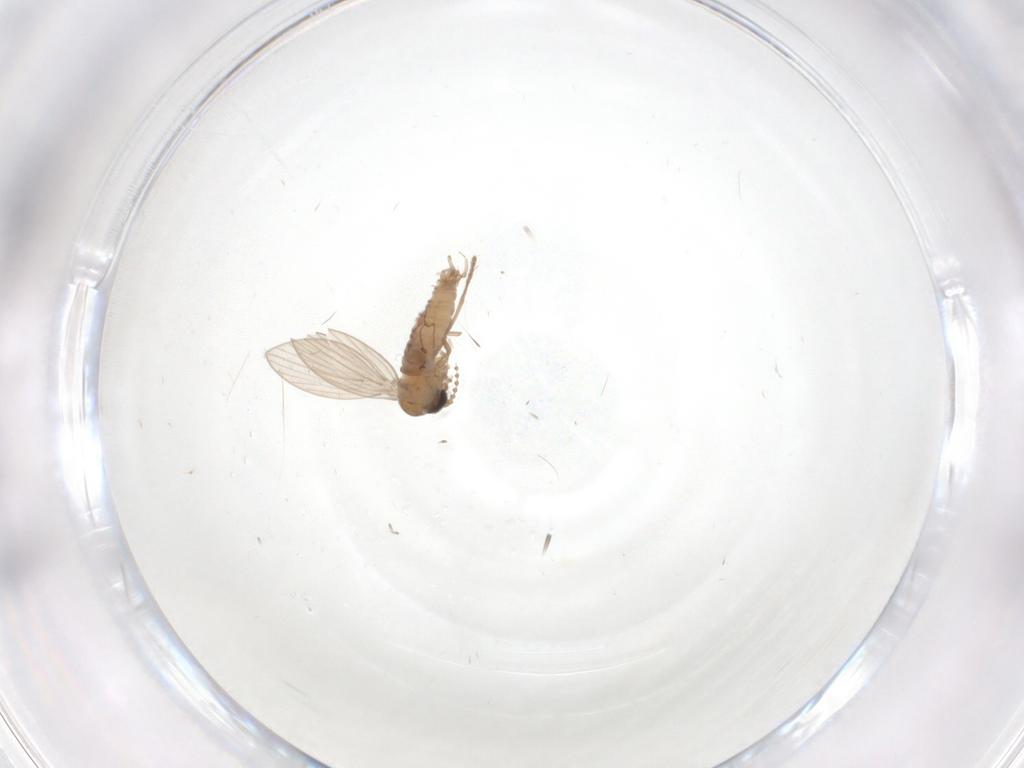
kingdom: Animalia
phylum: Arthropoda
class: Insecta
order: Diptera
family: Psychodidae
